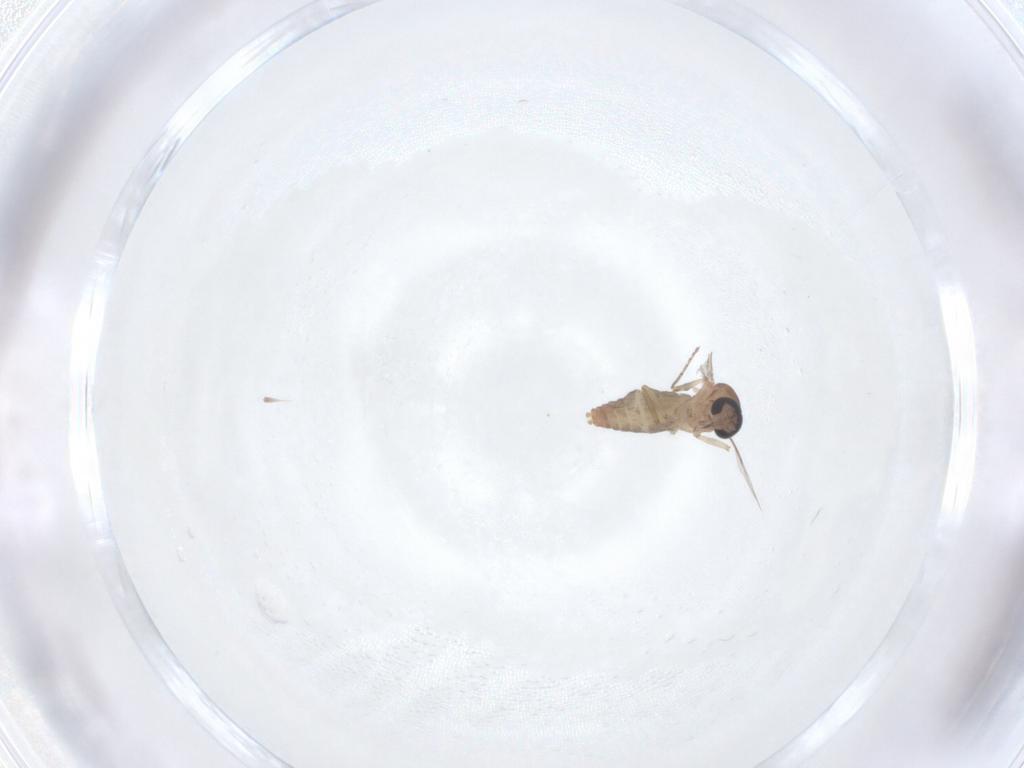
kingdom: Animalia
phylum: Arthropoda
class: Insecta
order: Diptera
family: Ceratopogonidae
